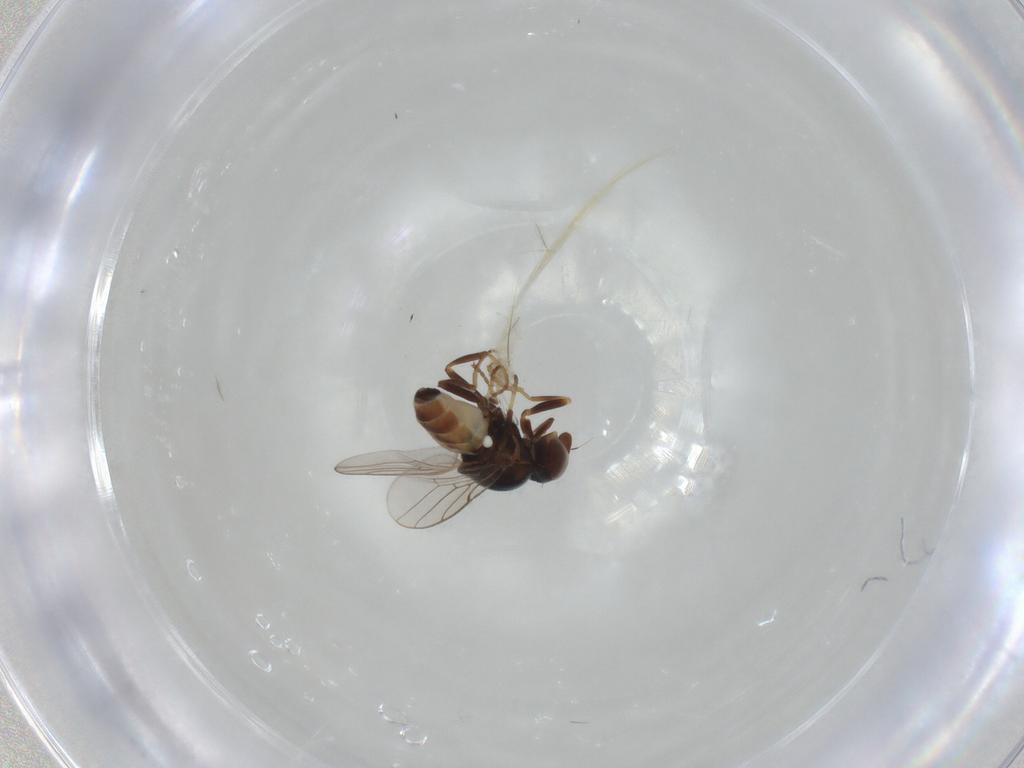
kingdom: Animalia
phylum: Arthropoda
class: Insecta
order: Diptera
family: Chloropidae
